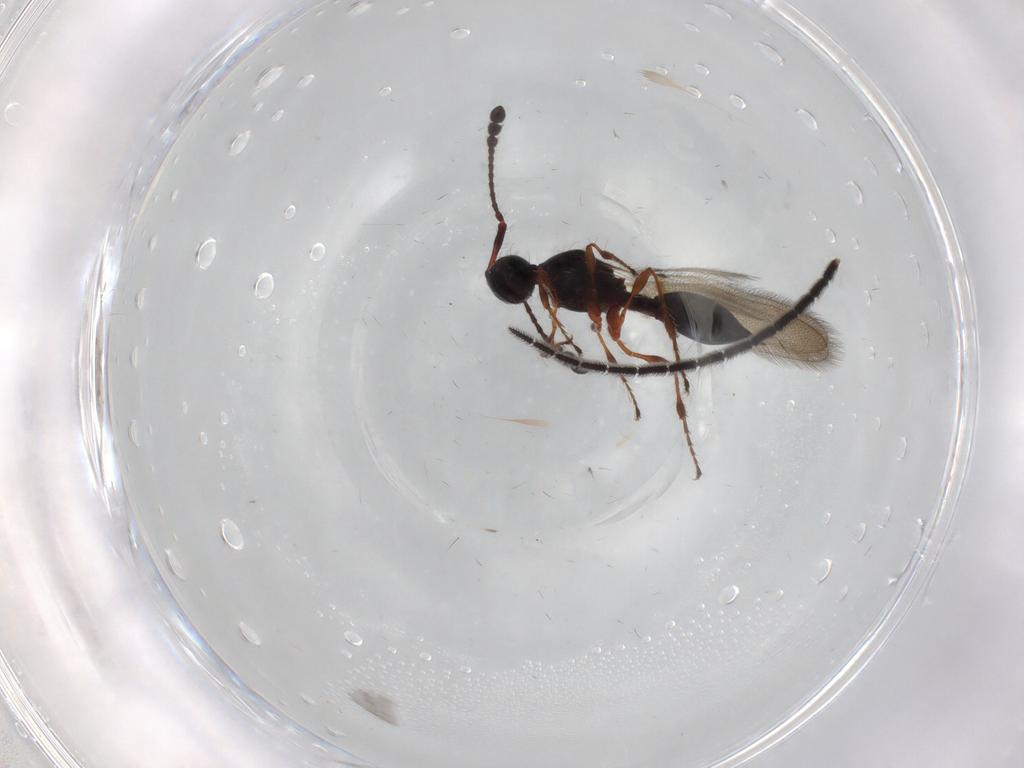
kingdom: Animalia
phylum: Arthropoda
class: Insecta
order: Hymenoptera
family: Diapriidae
